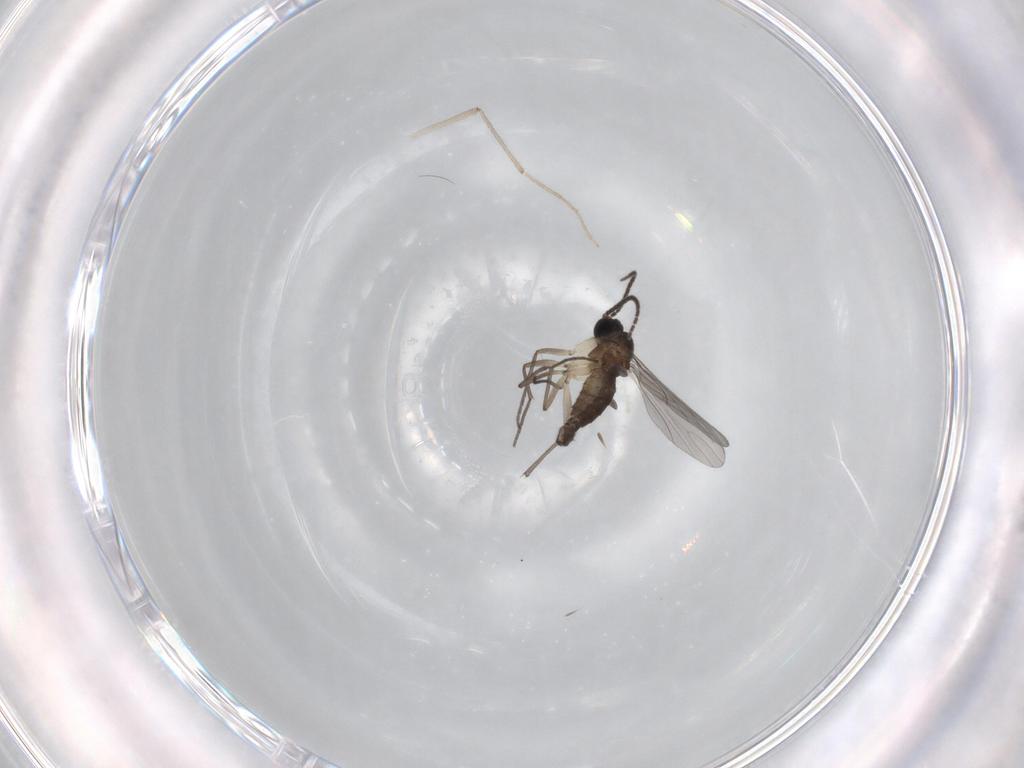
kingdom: Animalia
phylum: Arthropoda
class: Insecta
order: Diptera
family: Sciaridae
